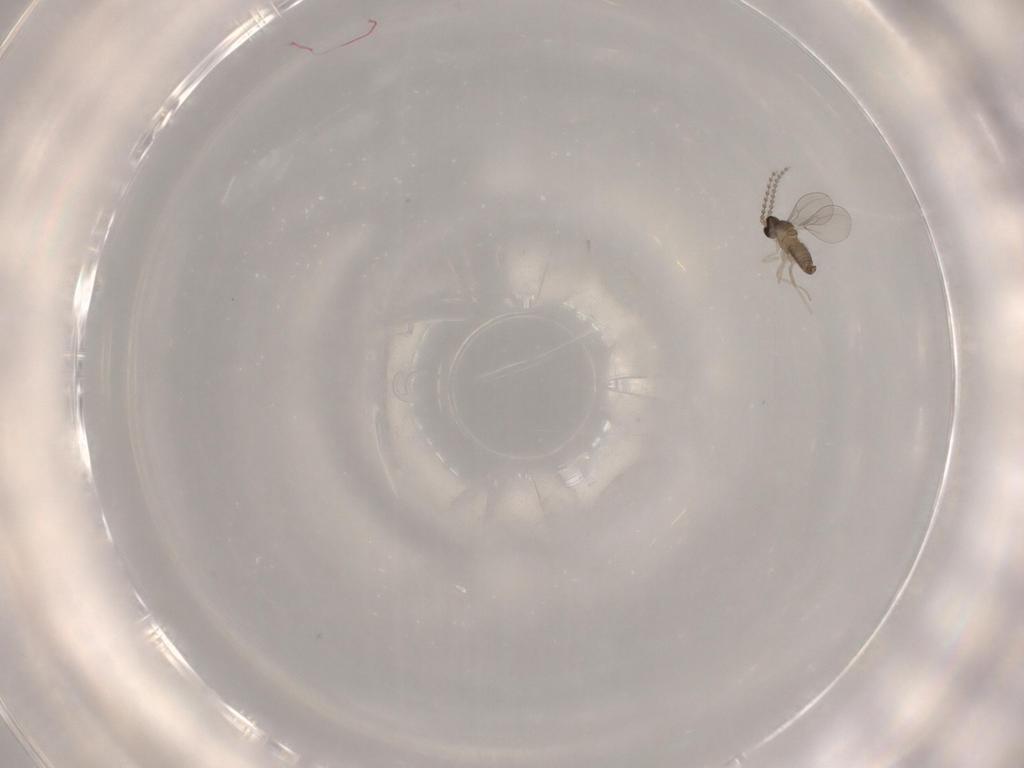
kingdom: Animalia
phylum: Arthropoda
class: Insecta
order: Diptera
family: Cecidomyiidae
